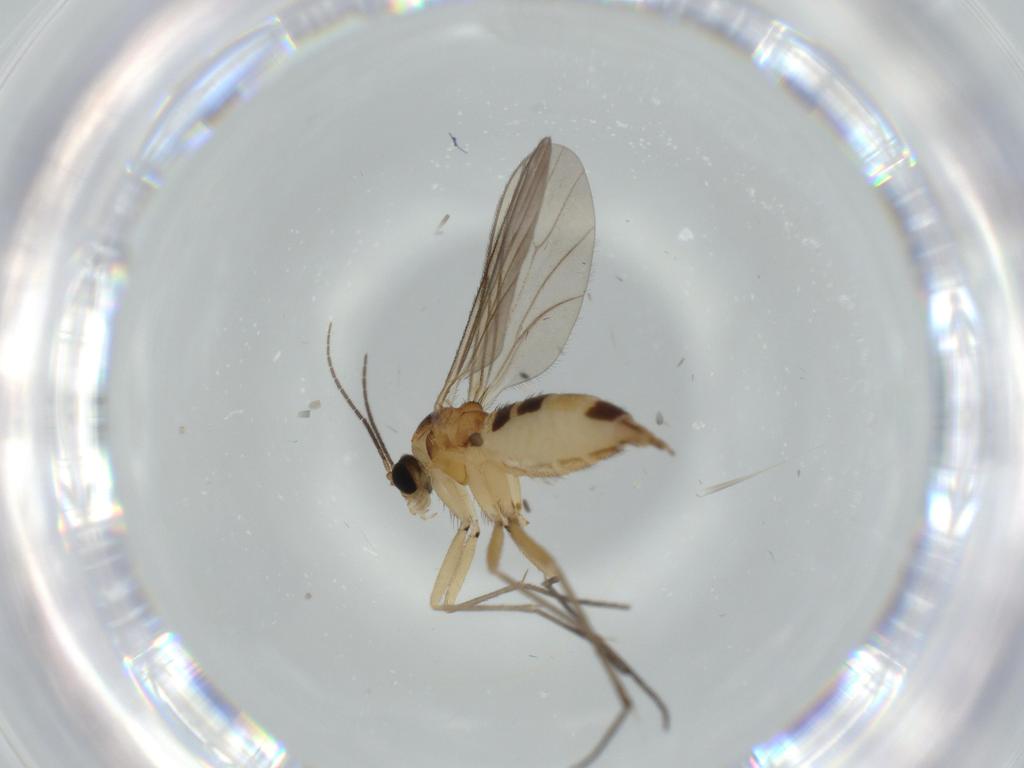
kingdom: Animalia
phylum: Arthropoda
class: Insecta
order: Diptera
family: Sciaridae
